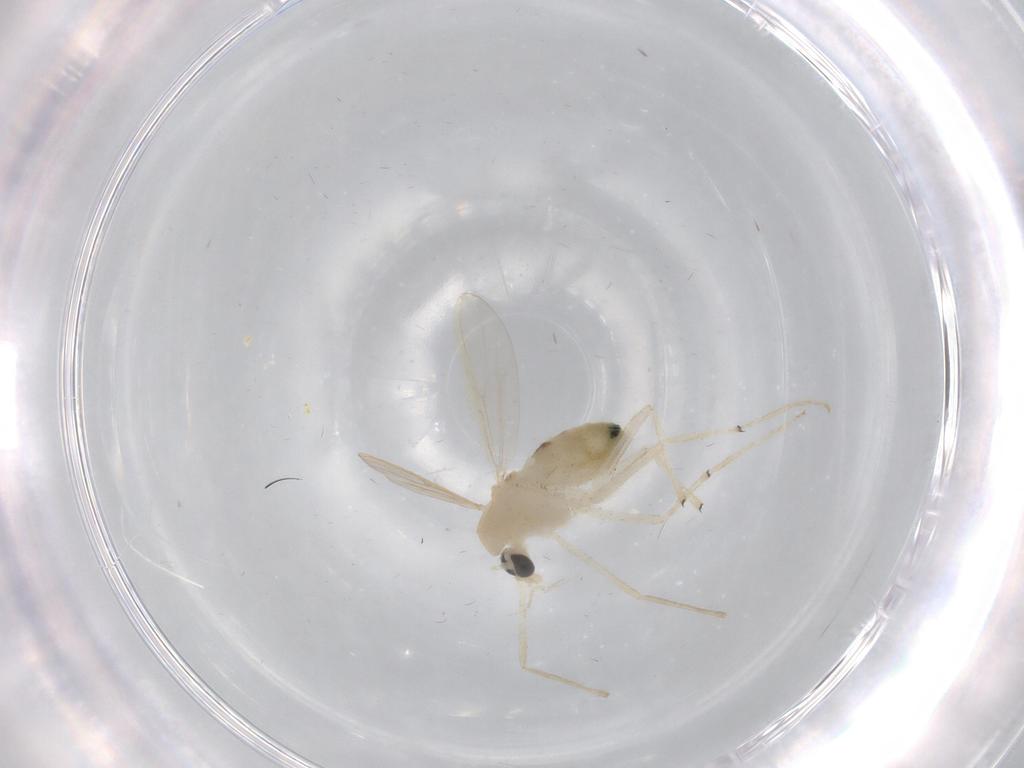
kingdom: Animalia
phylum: Arthropoda
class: Insecta
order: Diptera
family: Chironomidae
